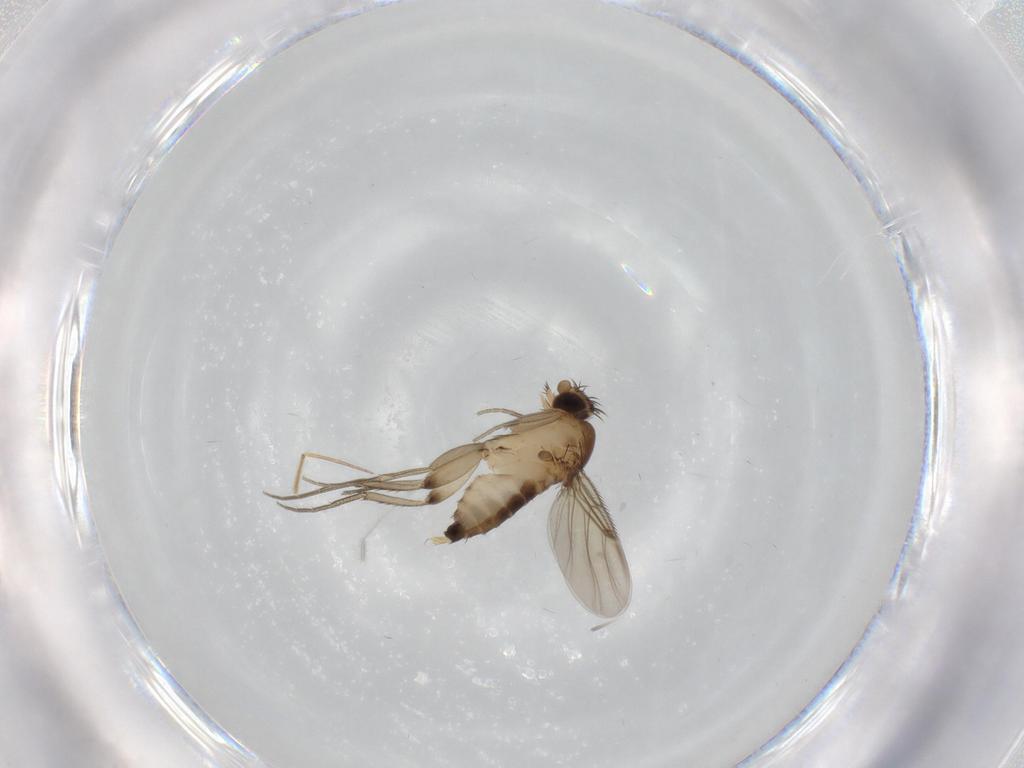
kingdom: Animalia
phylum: Arthropoda
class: Insecta
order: Diptera
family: Phoridae
